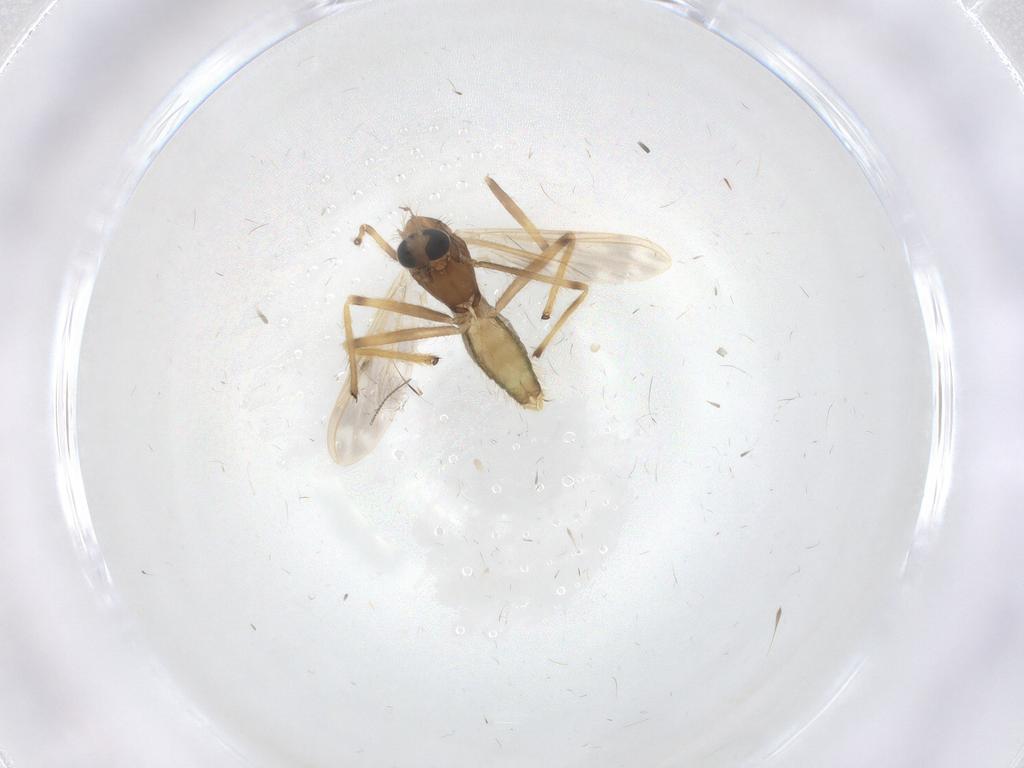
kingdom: Animalia
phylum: Arthropoda
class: Insecta
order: Diptera
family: Chironomidae
